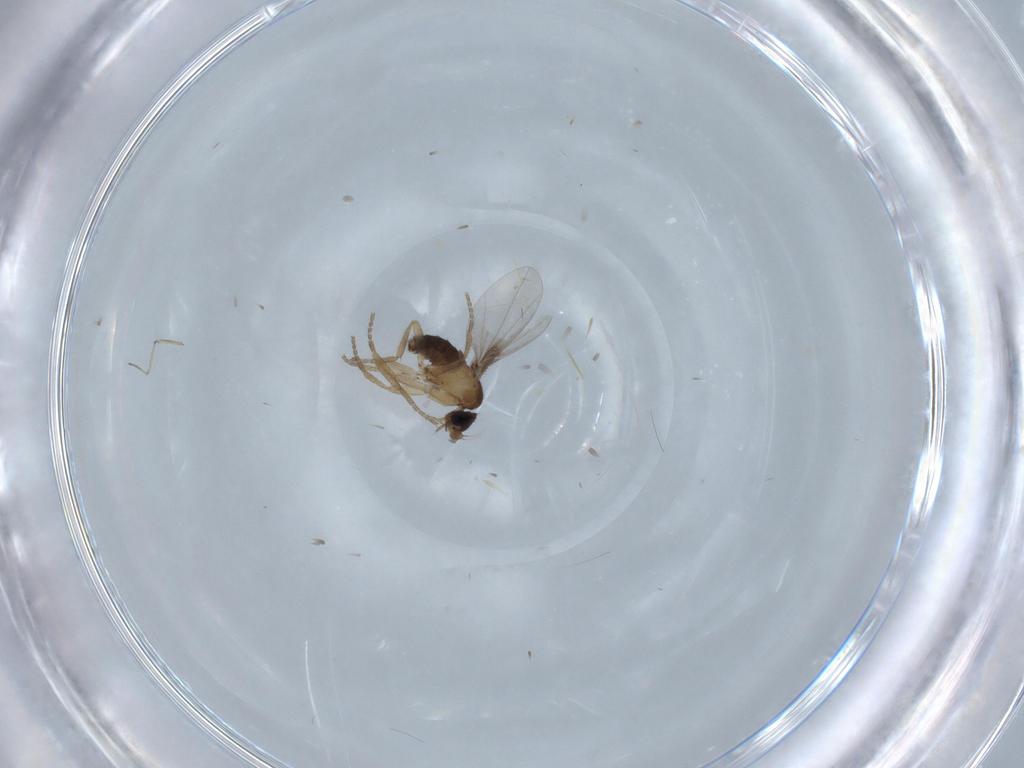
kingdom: Animalia
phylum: Arthropoda
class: Insecta
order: Diptera
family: Phoridae
